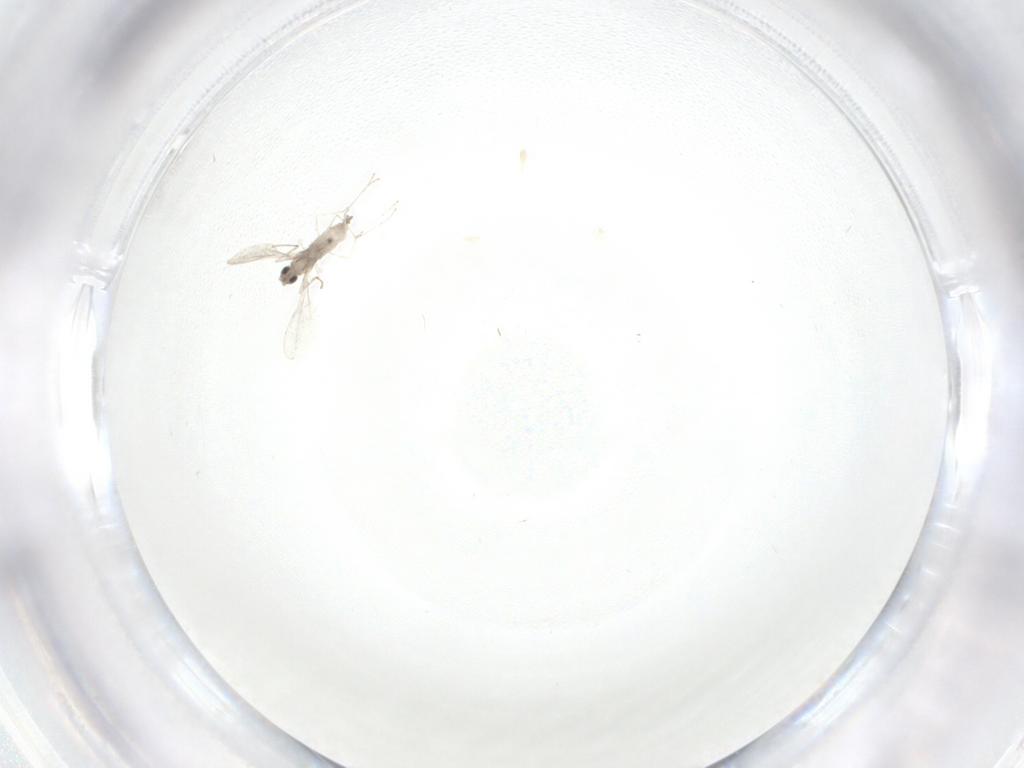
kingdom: Animalia
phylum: Arthropoda
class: Insecta
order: Diptera
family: Cecidomyiidae
